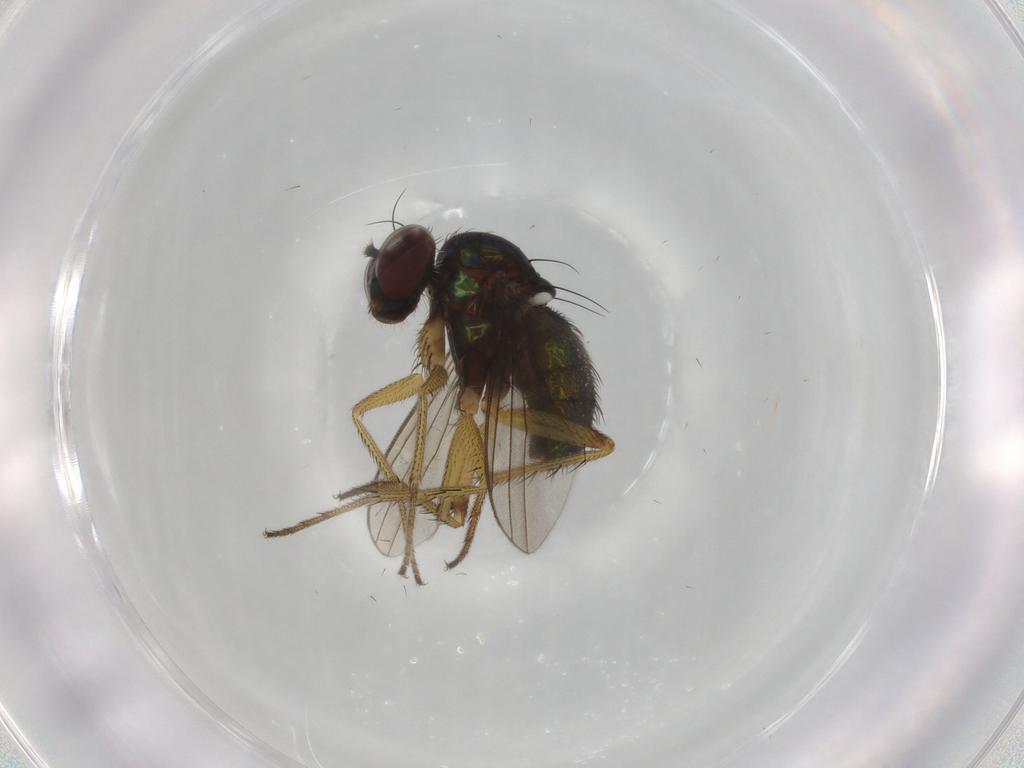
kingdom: Animalia
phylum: Arthropoda
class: Insecta
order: Diptera
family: Dolichopodidae
